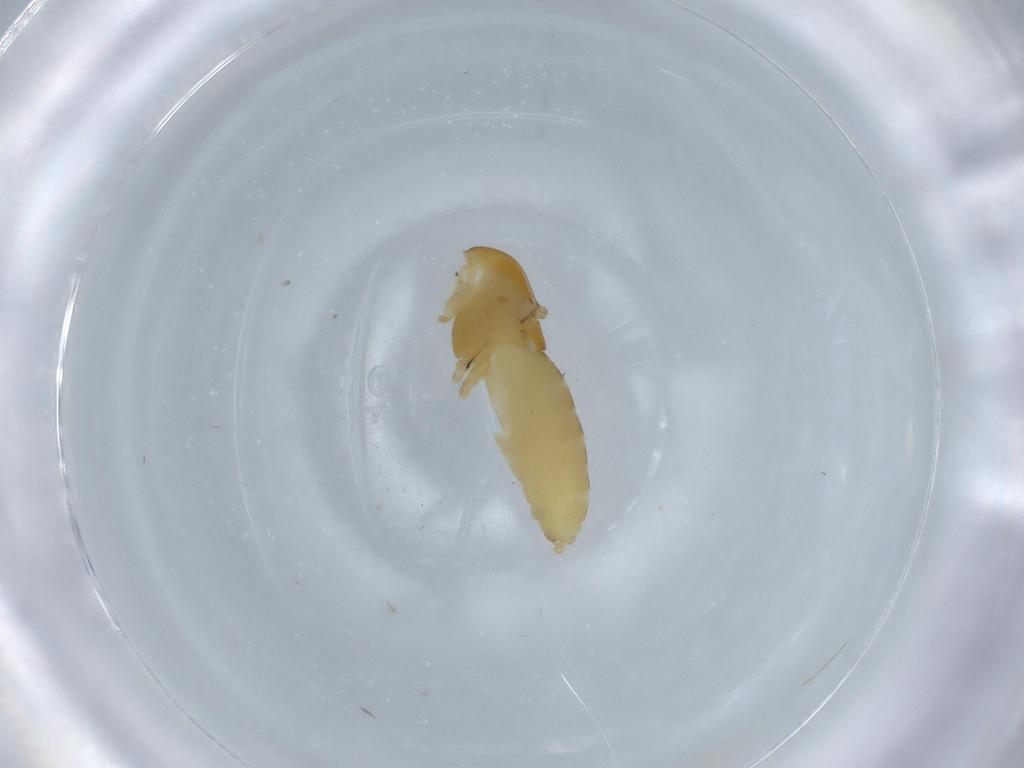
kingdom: Animalia
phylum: Arthropoda
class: Insecta
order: Diptera
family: Chironomidae
